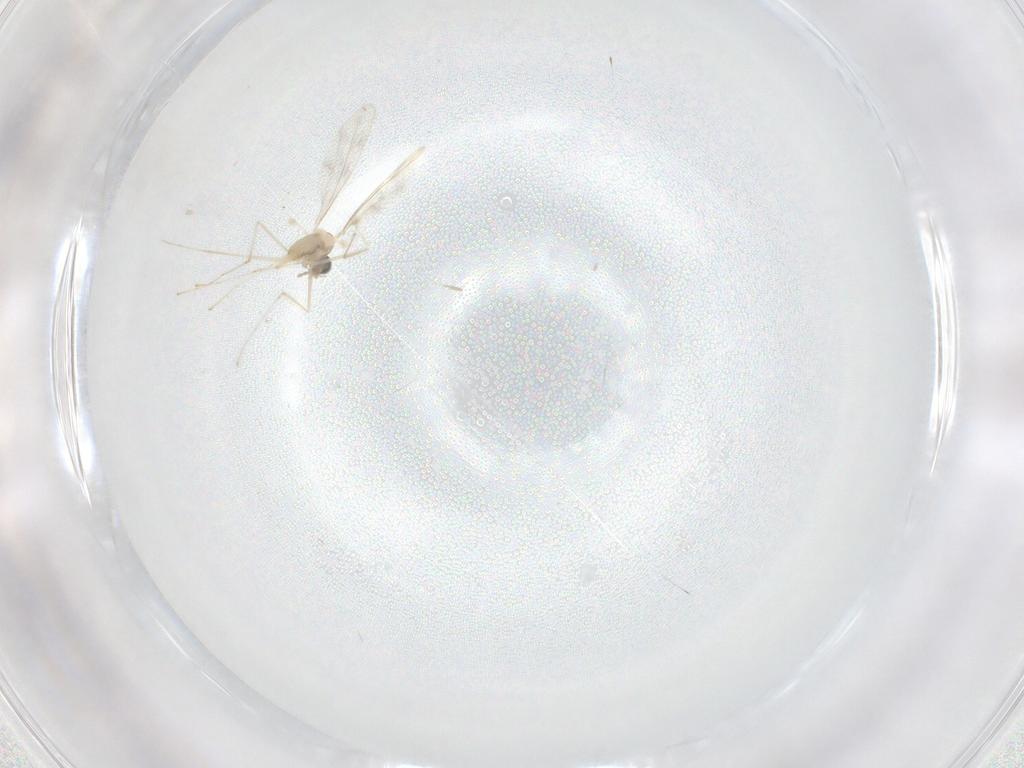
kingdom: Animalia
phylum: Arthropoda
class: Insecta
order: Diptera
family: Cecidomyiidae
